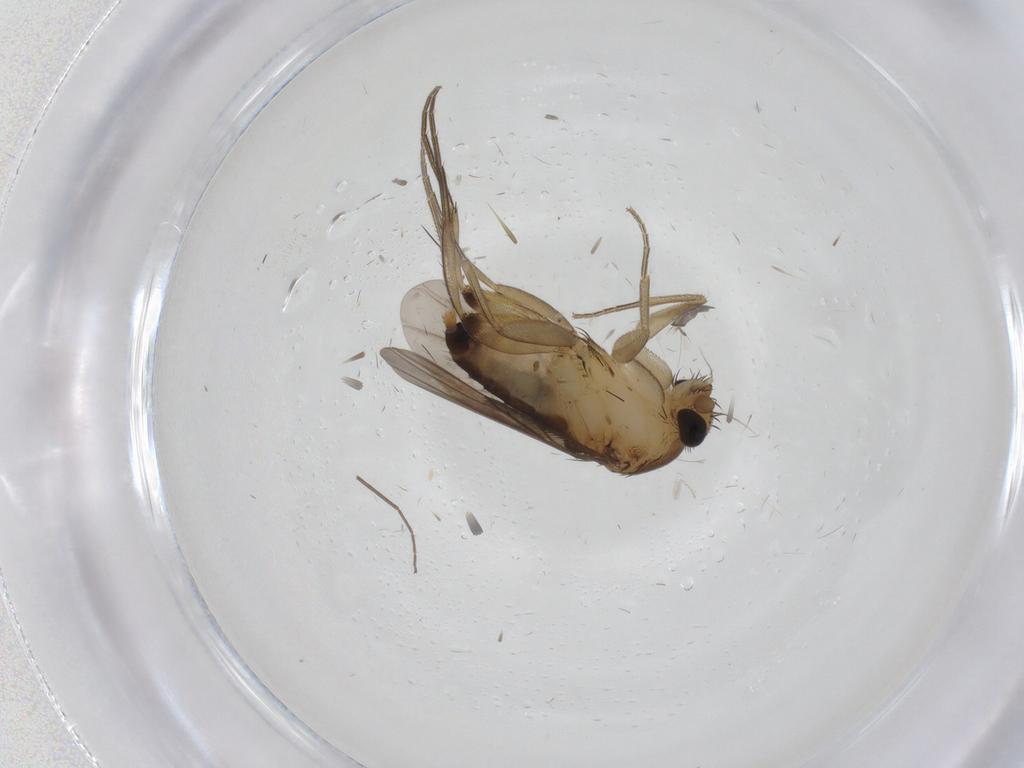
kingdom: Animalia
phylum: Arthropoda
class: Insecta
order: Diptera
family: Phoridae
